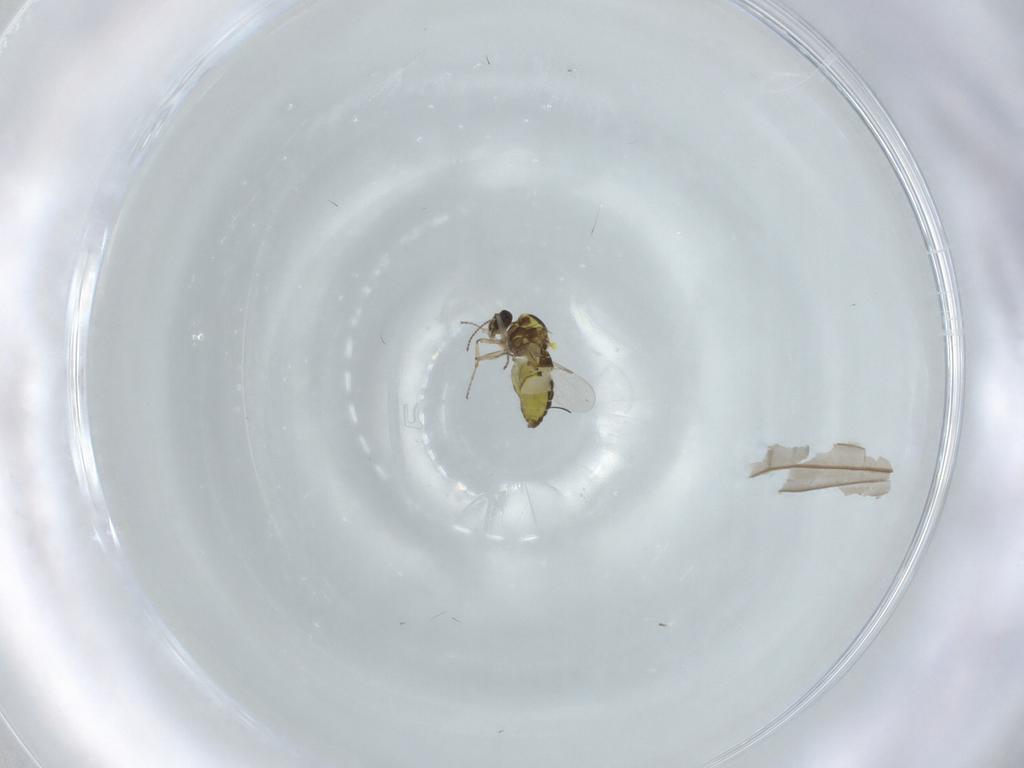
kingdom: Animalia
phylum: Arthropoda
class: Insecta
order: Diptera
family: Ceratopogonidae
